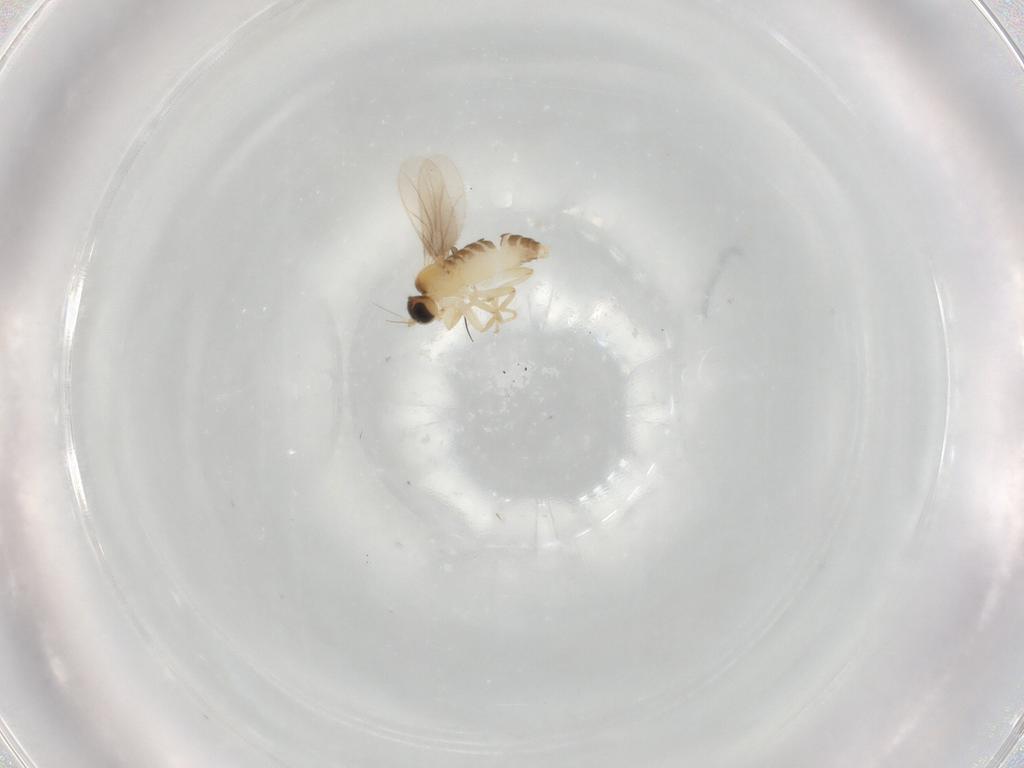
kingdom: Animalia
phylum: Arthropoda
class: Insecta
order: Diptera
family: Hybotidae
